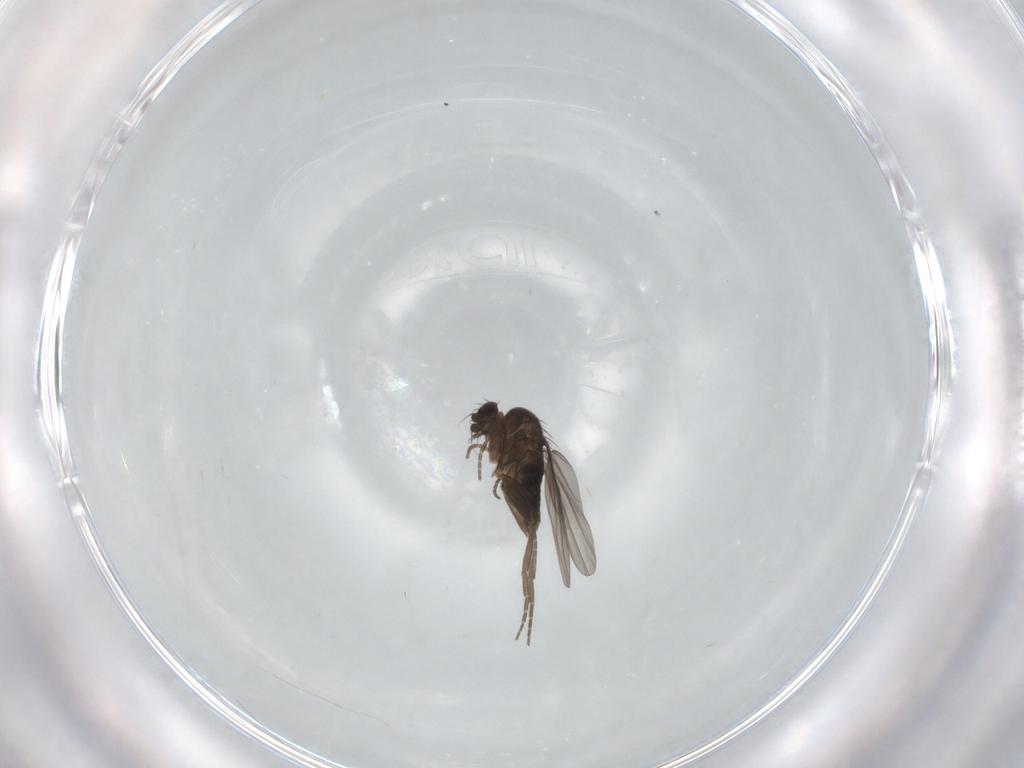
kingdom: Animalia
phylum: Arthropoda
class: Insecta
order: Diptera
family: Phoridae
